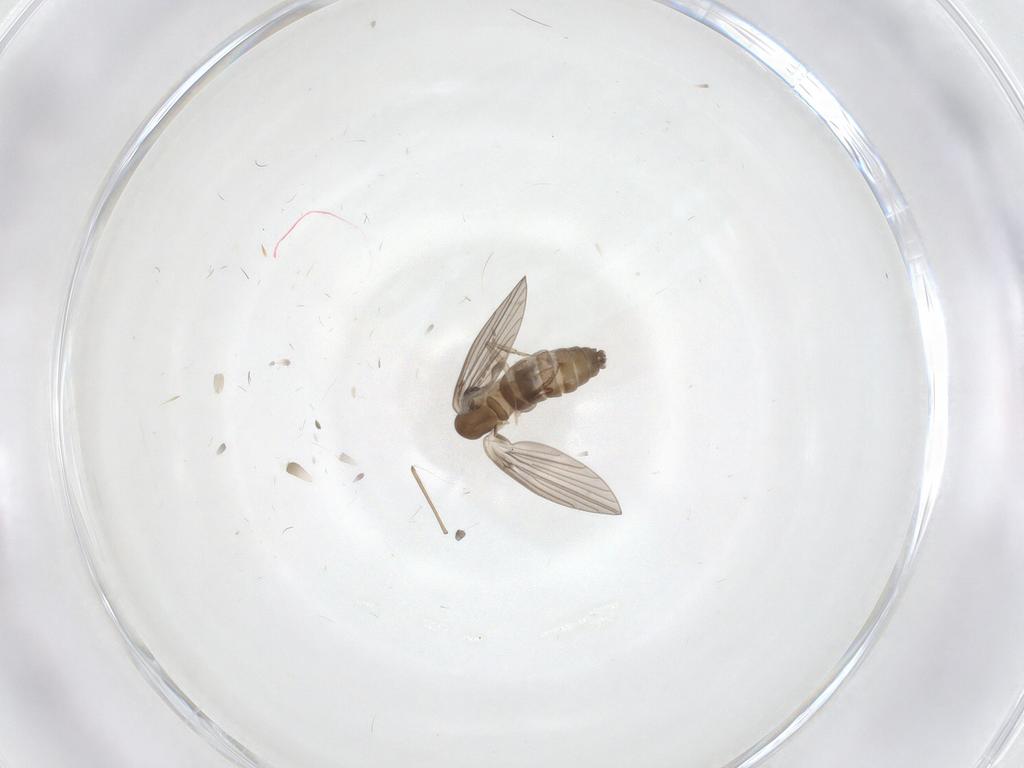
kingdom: Animalia
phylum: Arthropoda
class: Insecta
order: Diptera
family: Psychodidae
